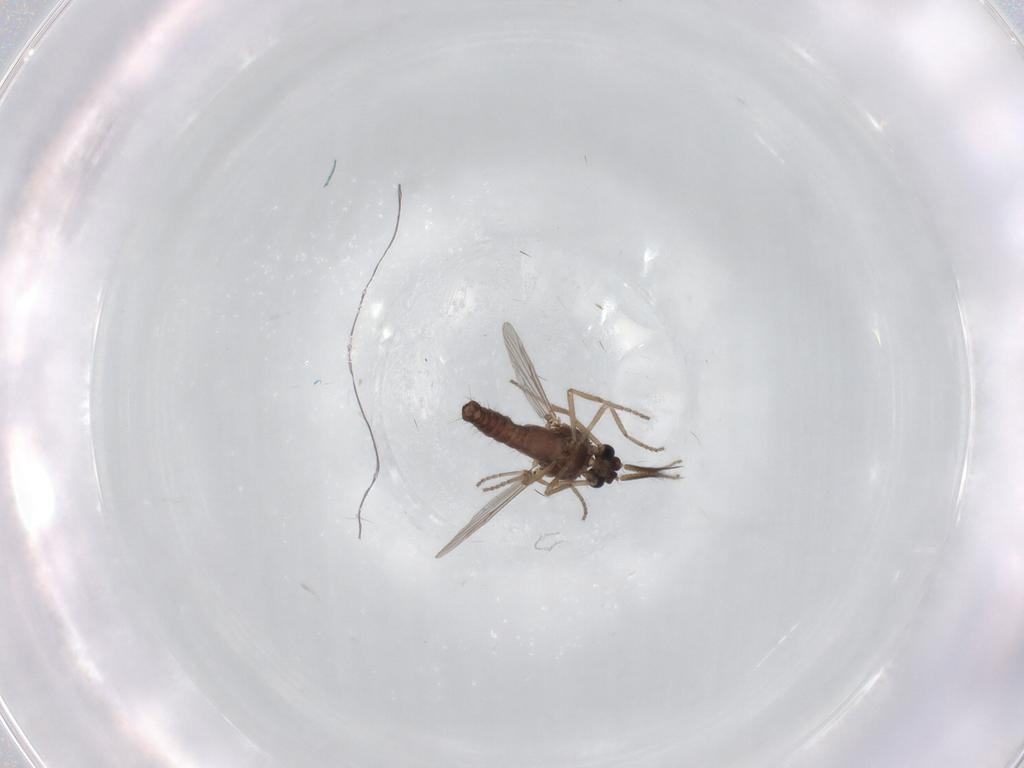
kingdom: Animalia
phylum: Arthropoda
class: Insecta
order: Diptera
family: Ceratopogonidae
